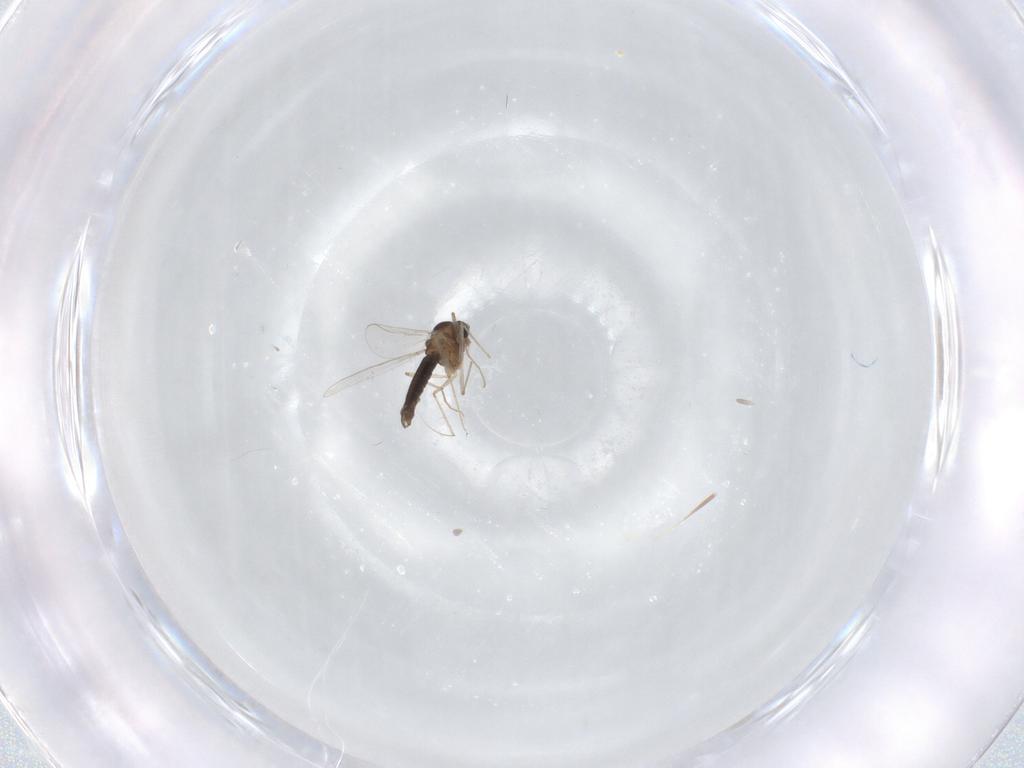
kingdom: Animalia
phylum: Arthropoda
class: Insecta
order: Diptera
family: Chironomidae
